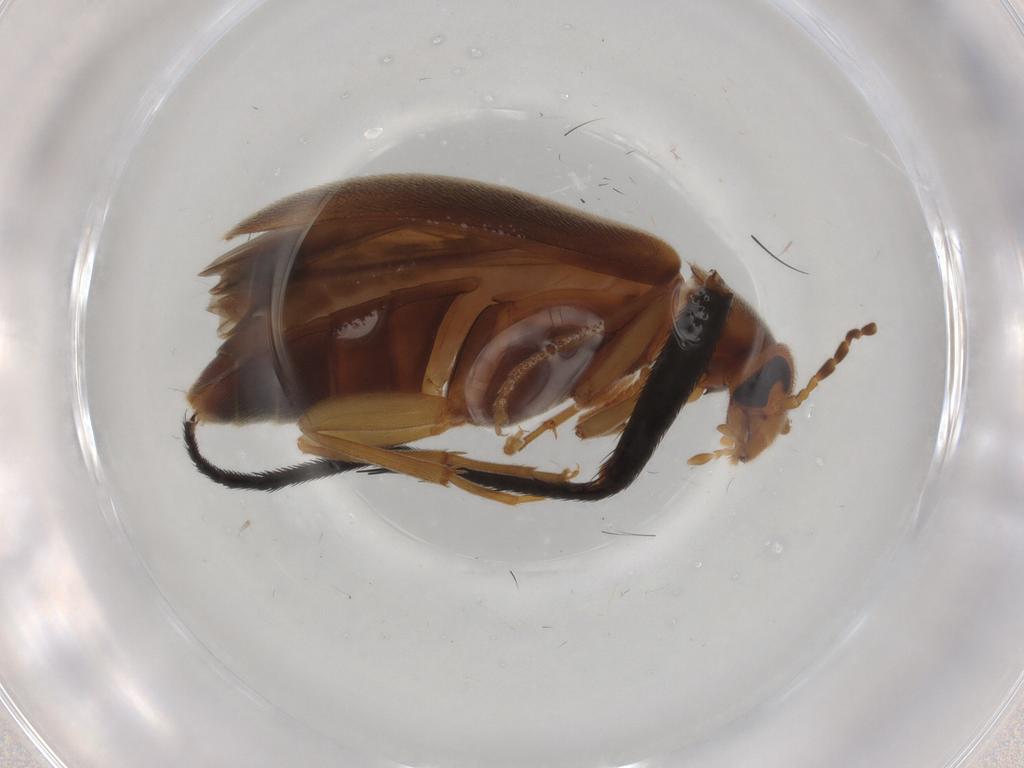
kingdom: Animalia
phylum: Arthropoda
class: Insecta
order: Coleoptera
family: Scraptiidae
